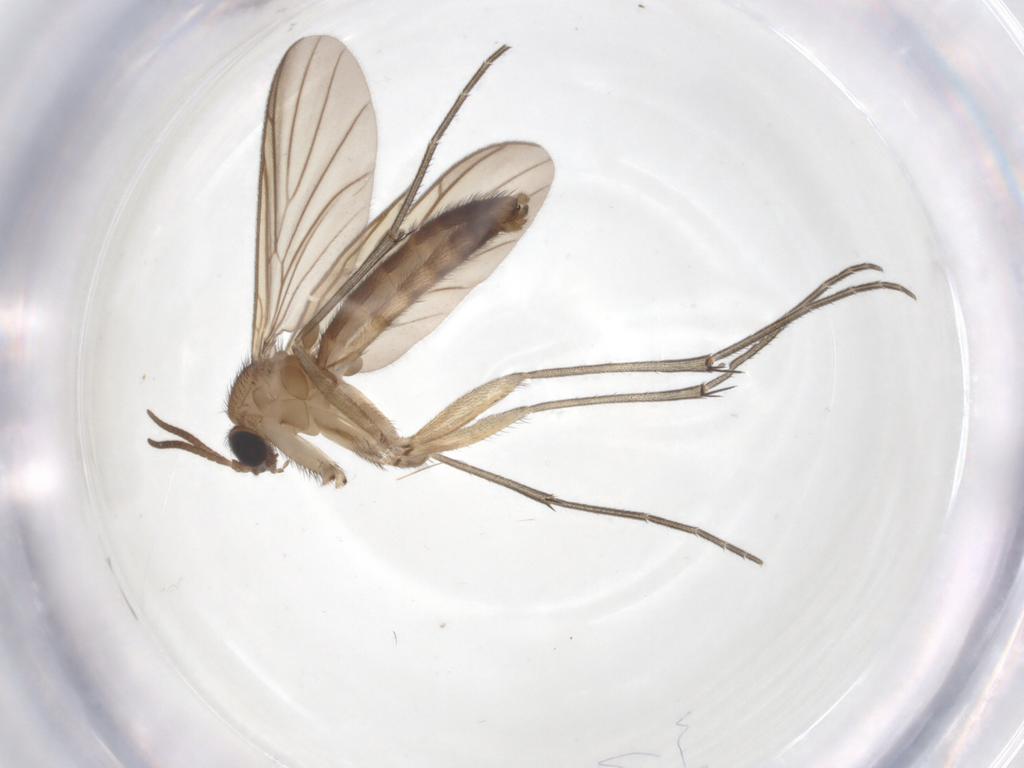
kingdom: Animalia
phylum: Arthropoda
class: Insecta
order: Diptera
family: Keroplatidae
